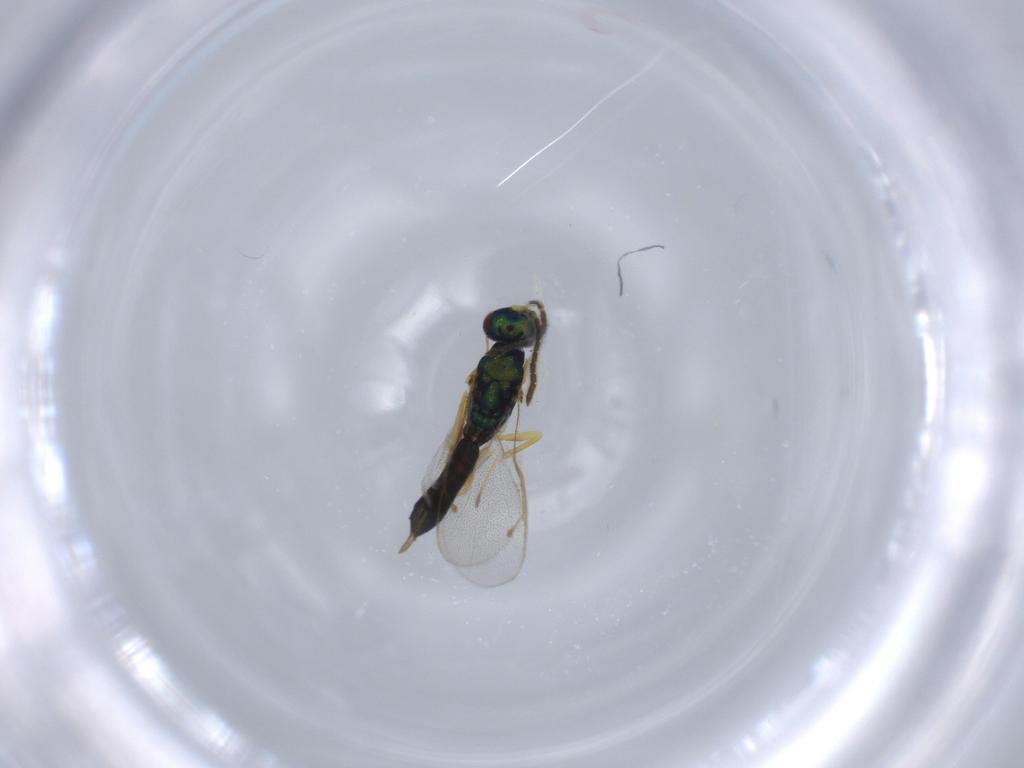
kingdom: Animalia
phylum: Arthropoda
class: Insecta
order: Hymenoptera
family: Pteromalidae
